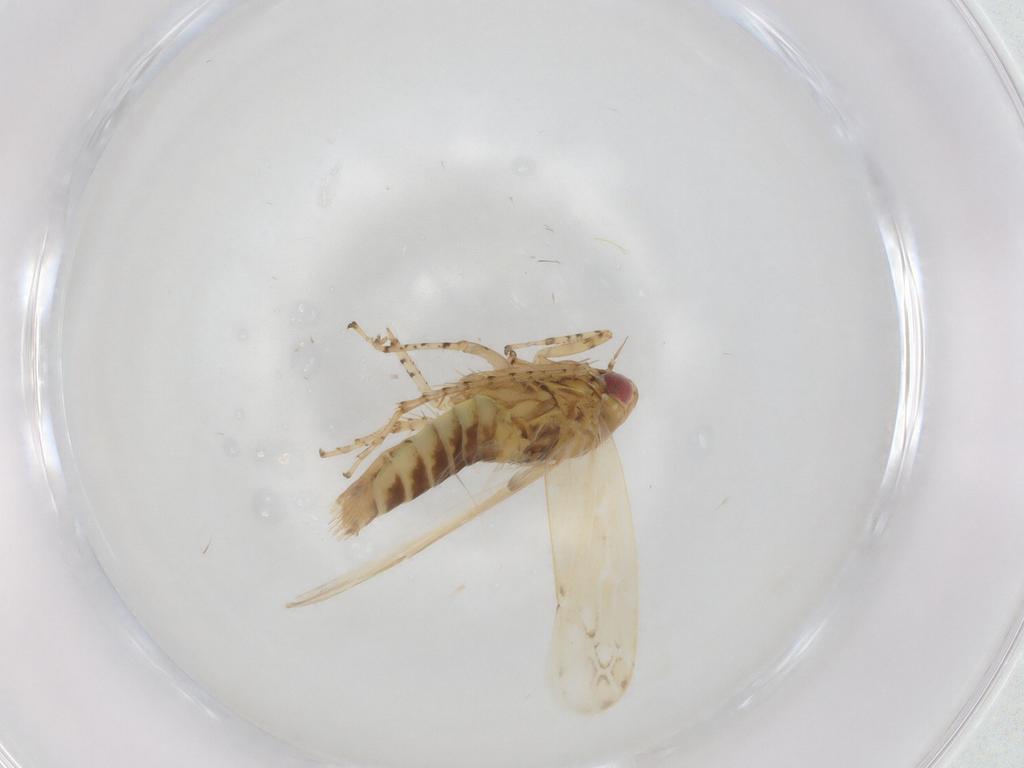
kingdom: Animalia
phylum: Arthropoda
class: Insecta
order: Hemiptera
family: Cicadellidae
